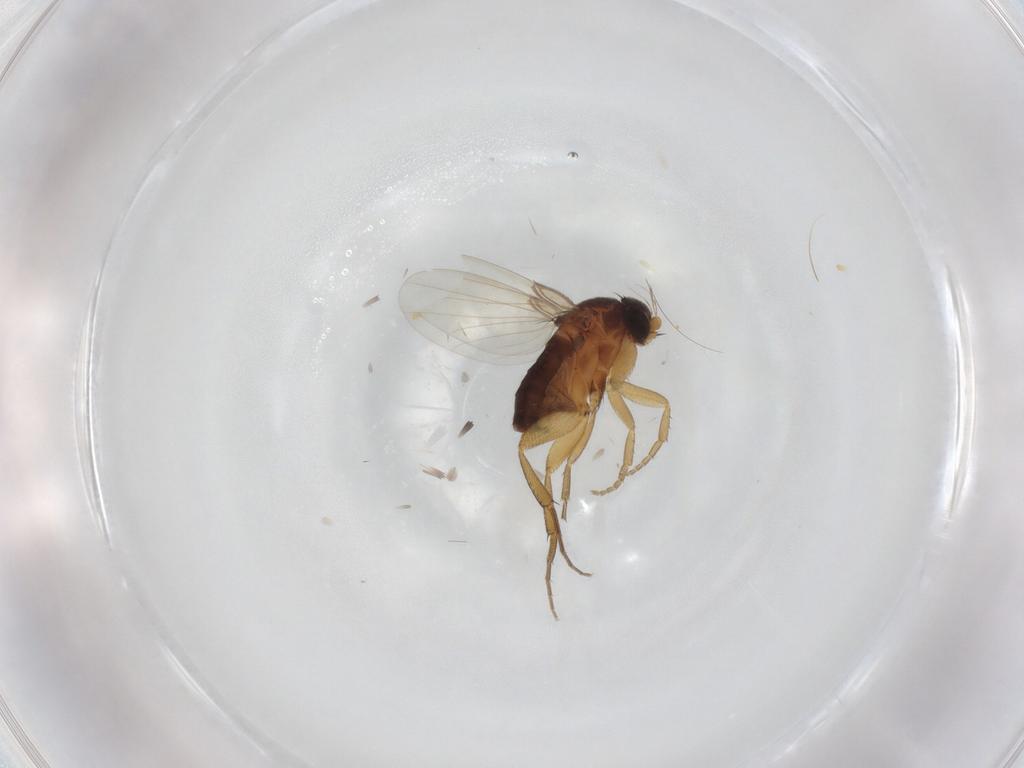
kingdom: Animalia
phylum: Arthropoda
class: Insecta
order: Diptera
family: Phoridae
